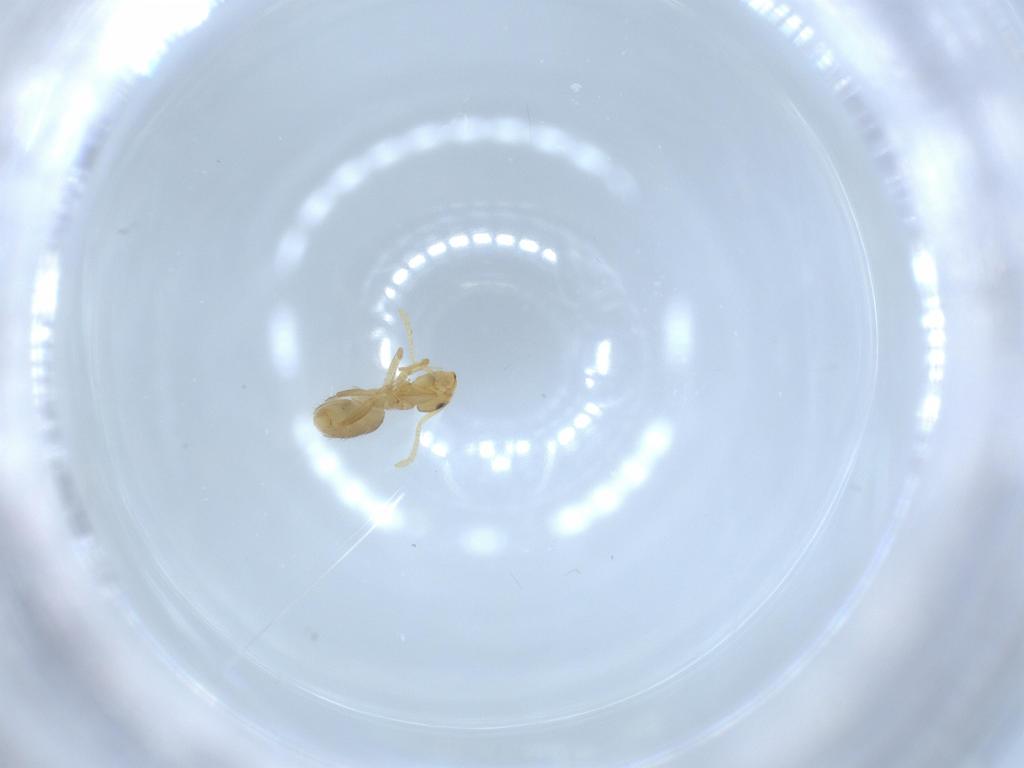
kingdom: Animalia
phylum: Arthropoda
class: Insecta
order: Hymenoptera
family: Formicidae
